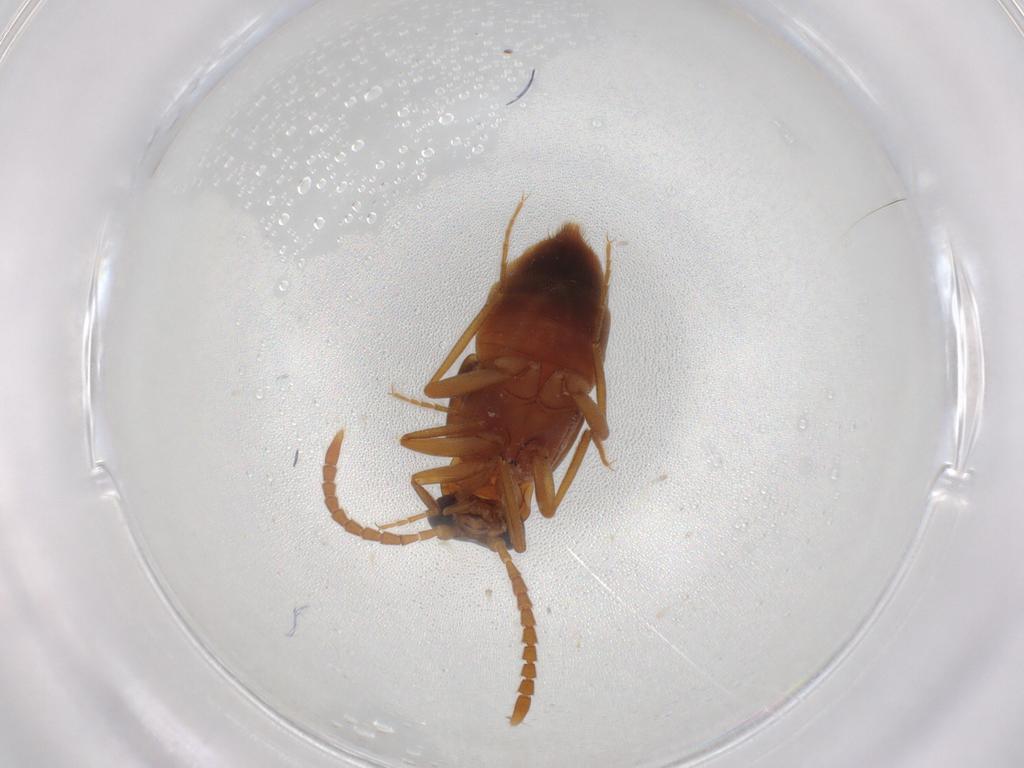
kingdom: Animalia
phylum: Arthropoda
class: Insecta
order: Coleoptera
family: Staphylinidae
